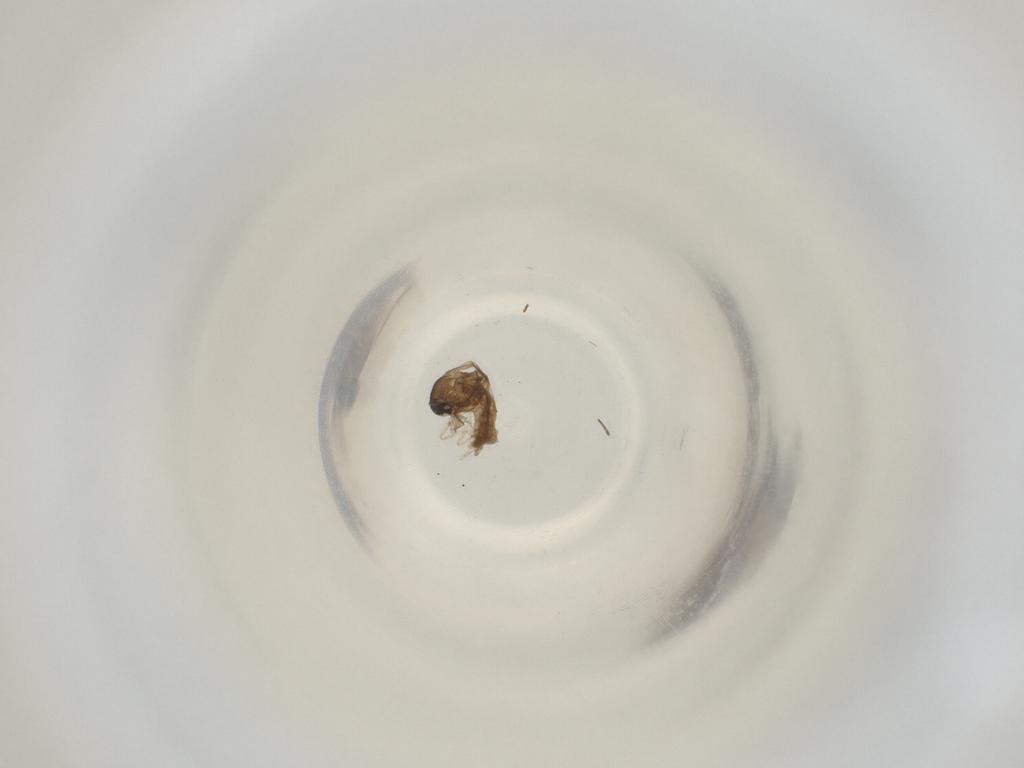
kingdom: Animalia
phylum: Arthropoda
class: Insecta
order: Diptera
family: Cecidomyiidae
